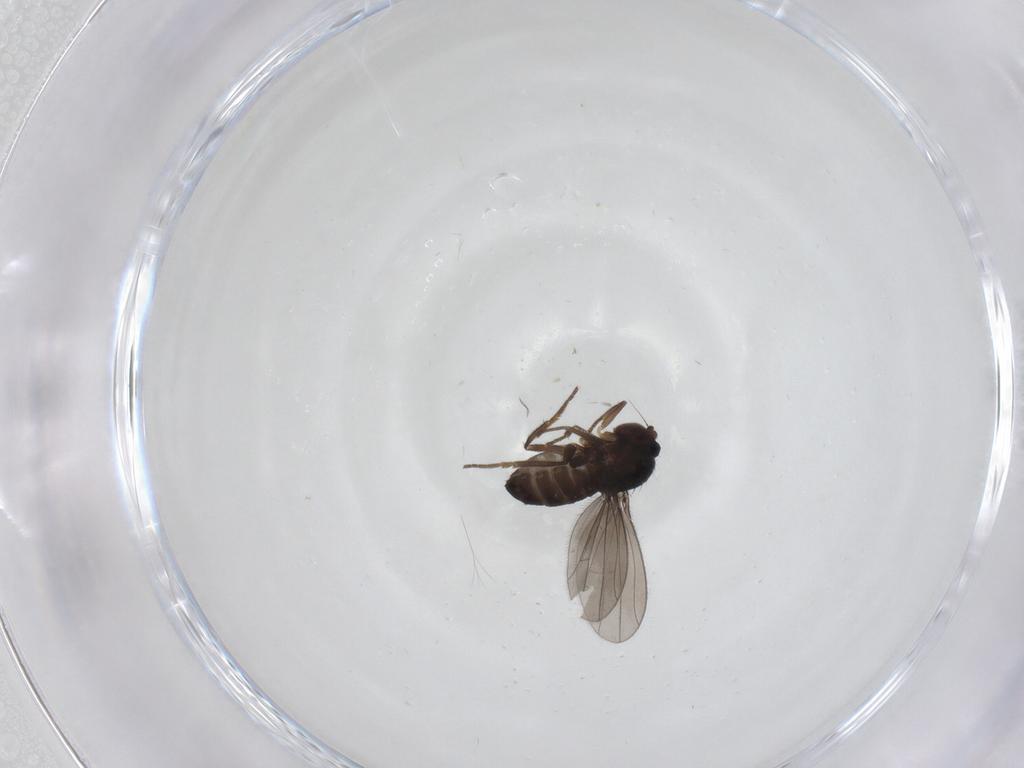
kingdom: Animalia
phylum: Arthropoda
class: Insecta
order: Diptera
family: Dolichopodidae
